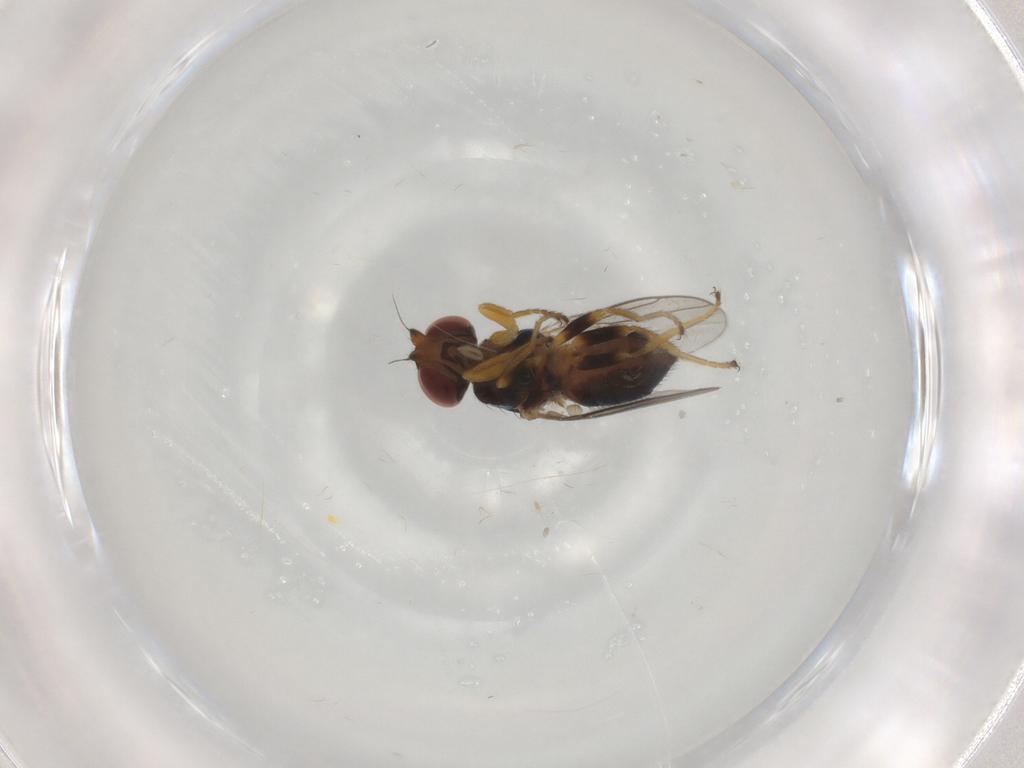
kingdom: Animalia
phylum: Arthropoda
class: Insecta
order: Diptera
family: Chloropidae
